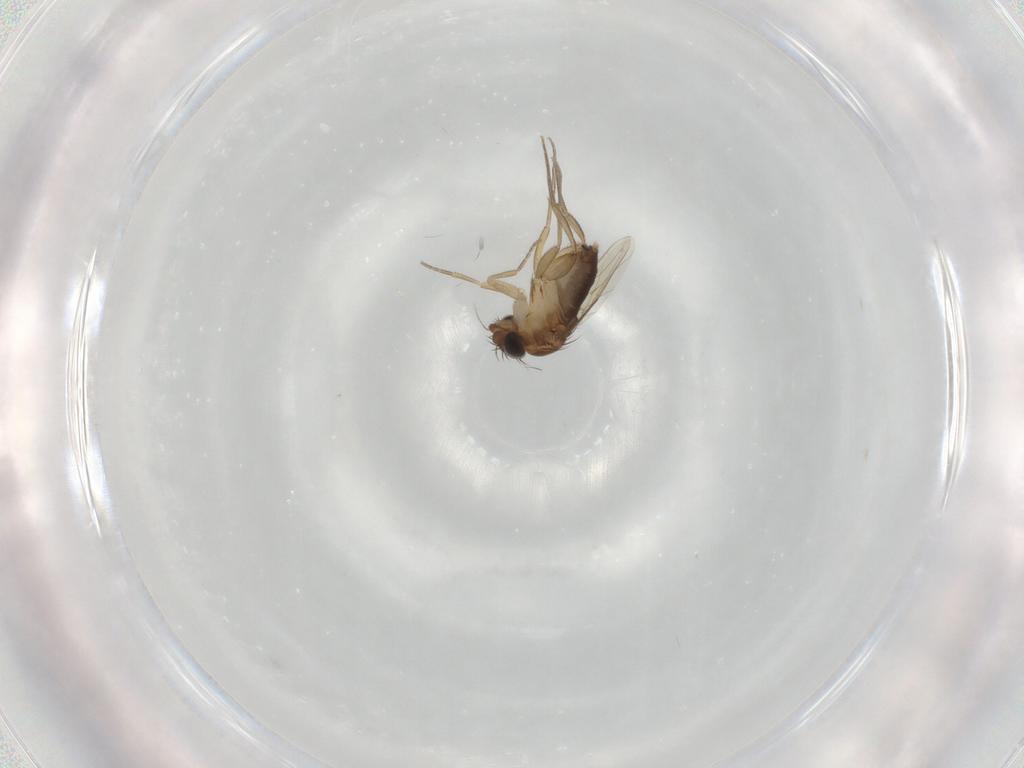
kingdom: Animalia
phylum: Arthropoda
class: Insecta
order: Diptera
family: Phoridae
